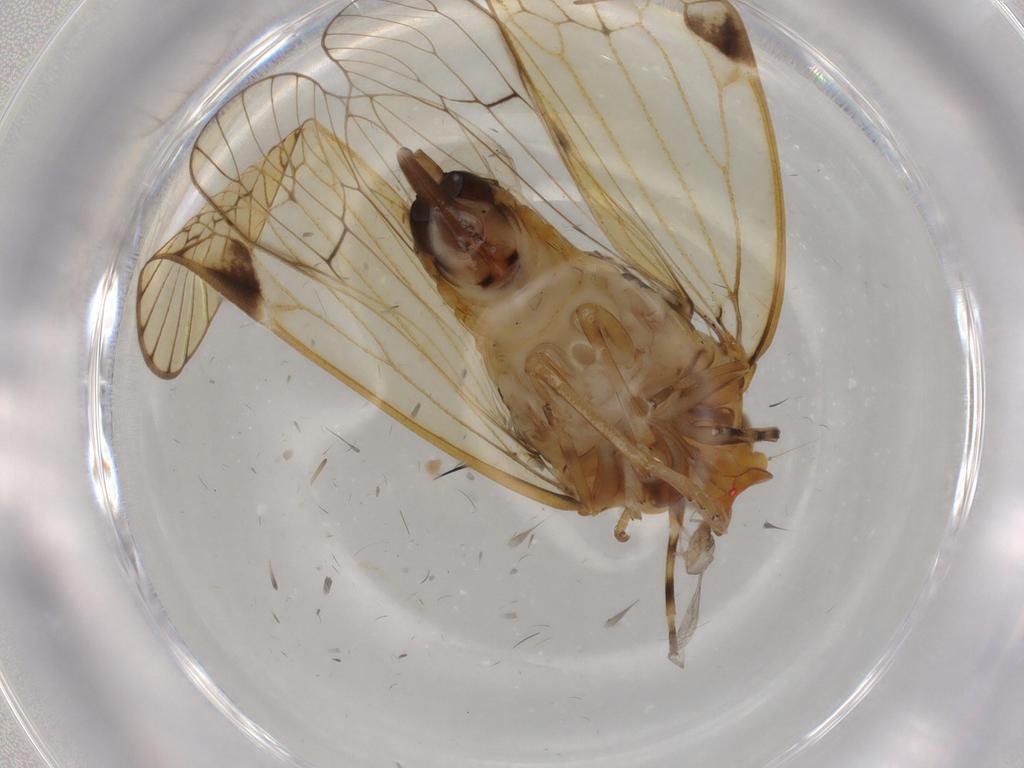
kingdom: Animalia
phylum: Arthropoda
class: Insecta
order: Hemiptera
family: Cixiidae
